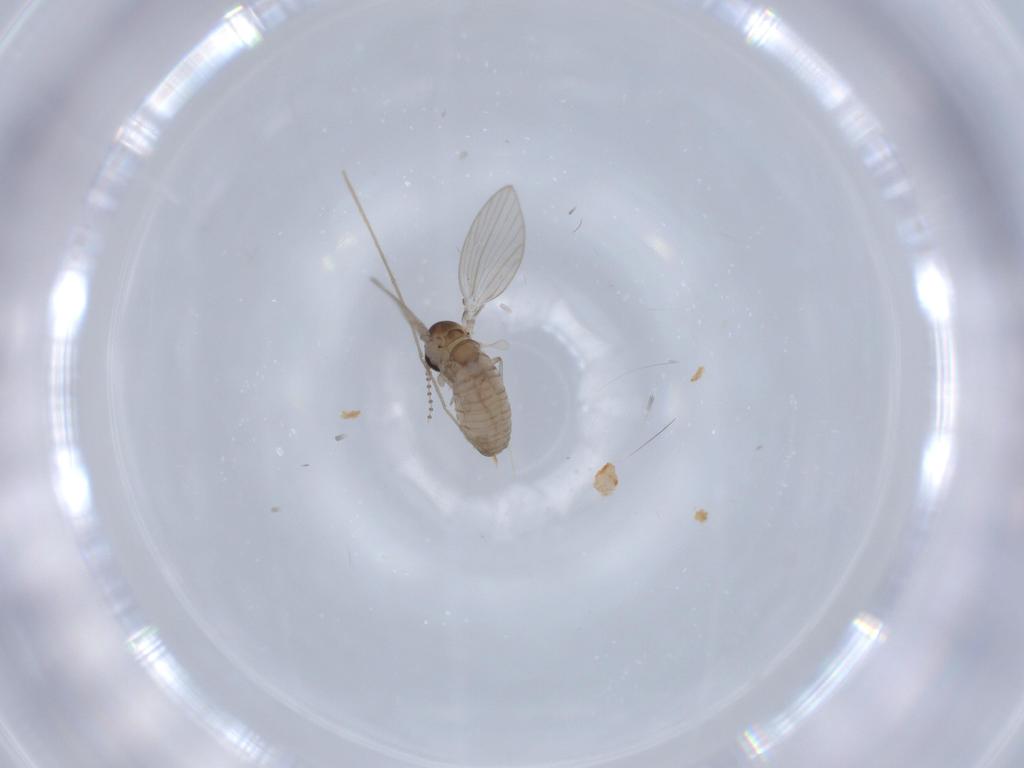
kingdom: Animalia
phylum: Arthropoda
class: Insecta
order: Diptera
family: Psychodidae
